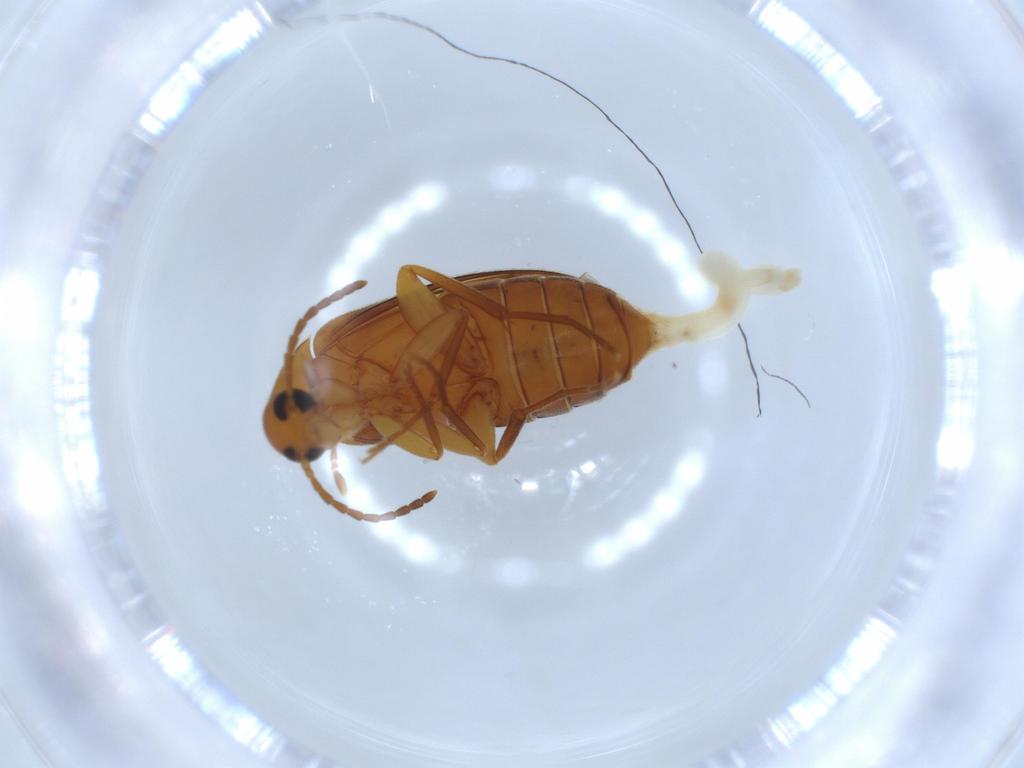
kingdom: Animalia
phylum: Arthropoda
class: Insecta
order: Coleoptera
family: Scraptiidae
